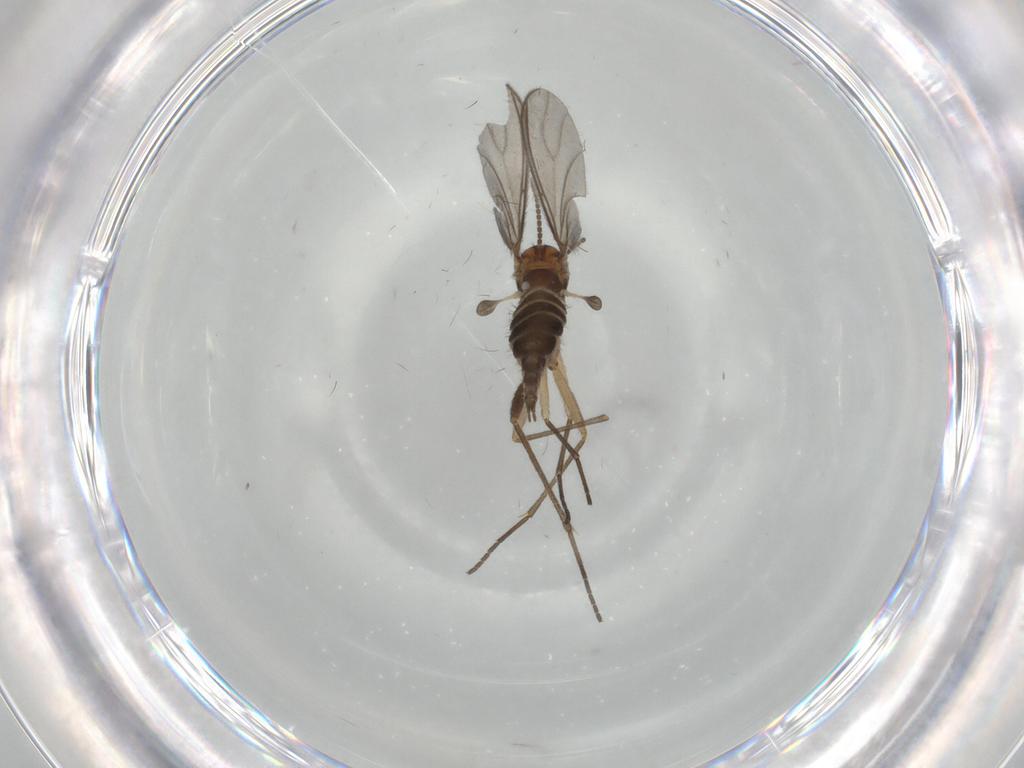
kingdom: Animalia
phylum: Arthropoda
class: Insecta
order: Diptera
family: Sciaridae
